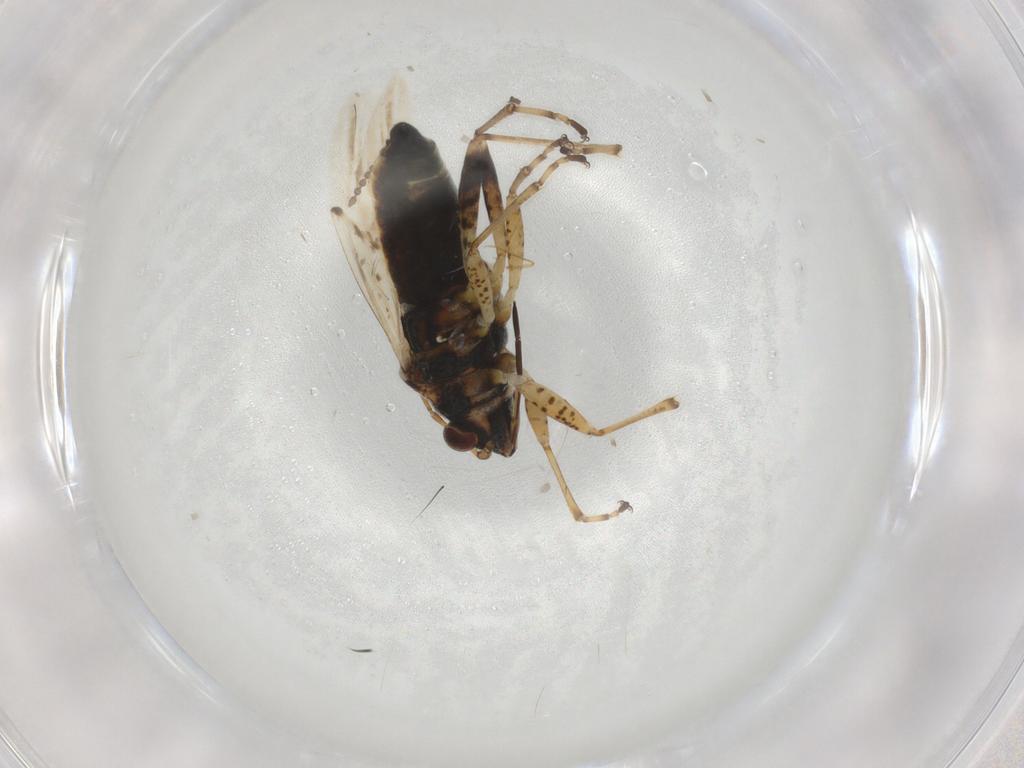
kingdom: Animalia
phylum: Arthropoda
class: Insecta
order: Hemiptera
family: Lygaeidae
